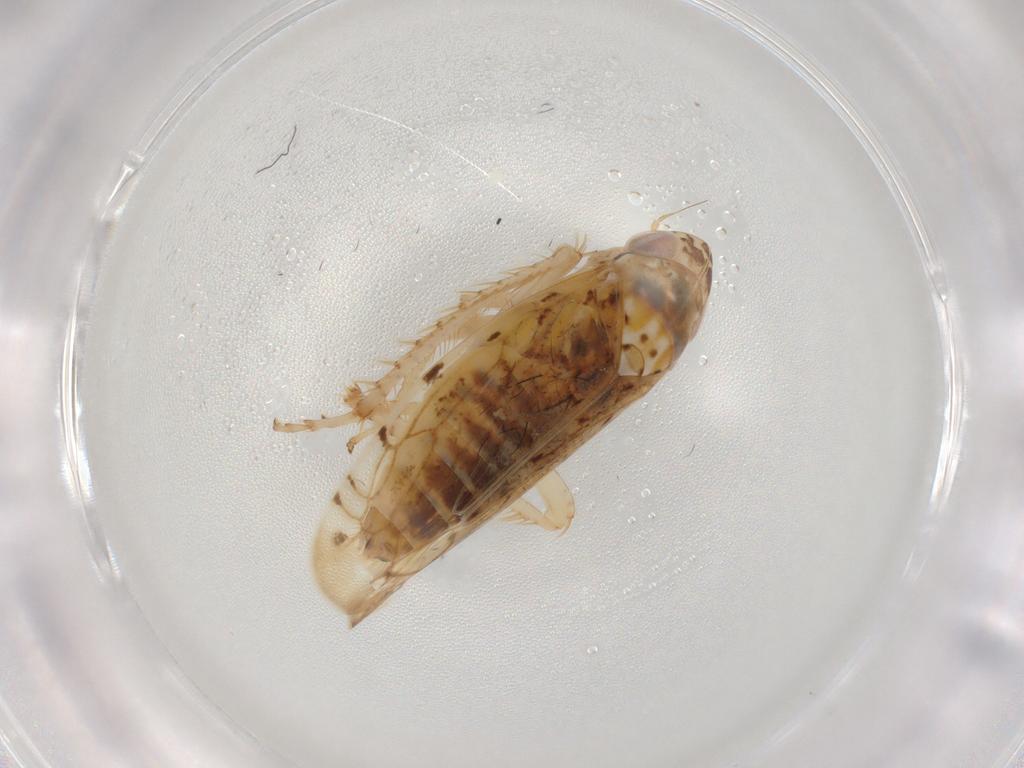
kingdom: Animalia
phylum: Arthropoda
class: Insecta
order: Hemiptera
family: Cicadellidae
